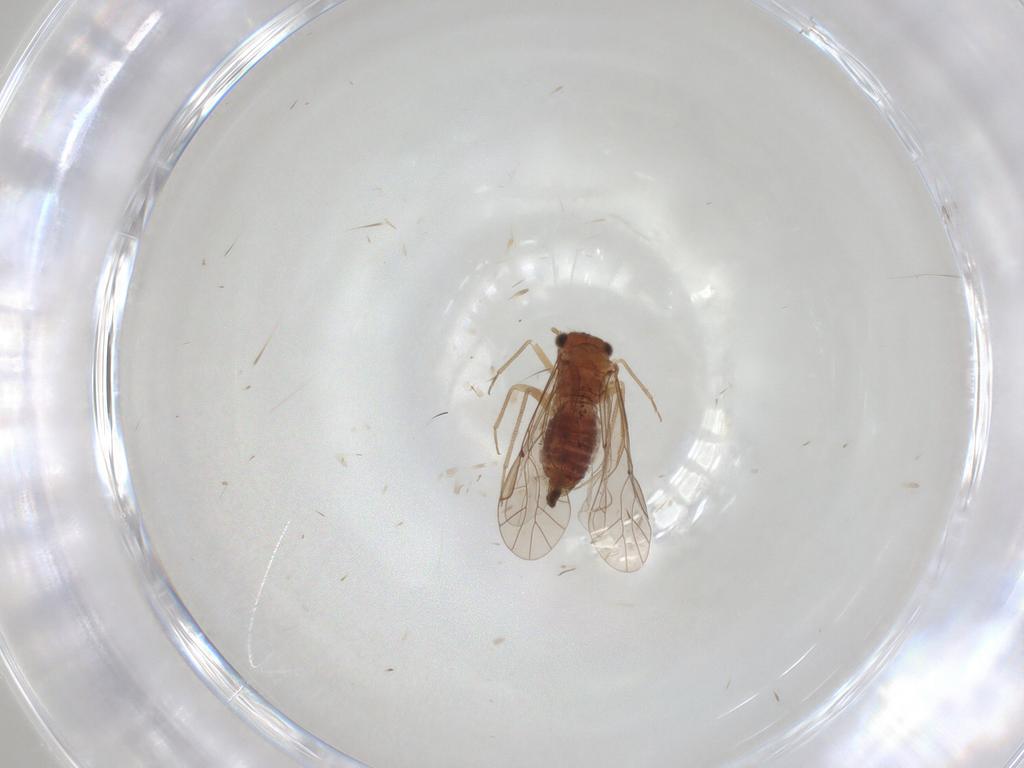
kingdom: Animalia
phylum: Arthropoda
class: Insecta
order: Psocodea
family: Lachesillidae
